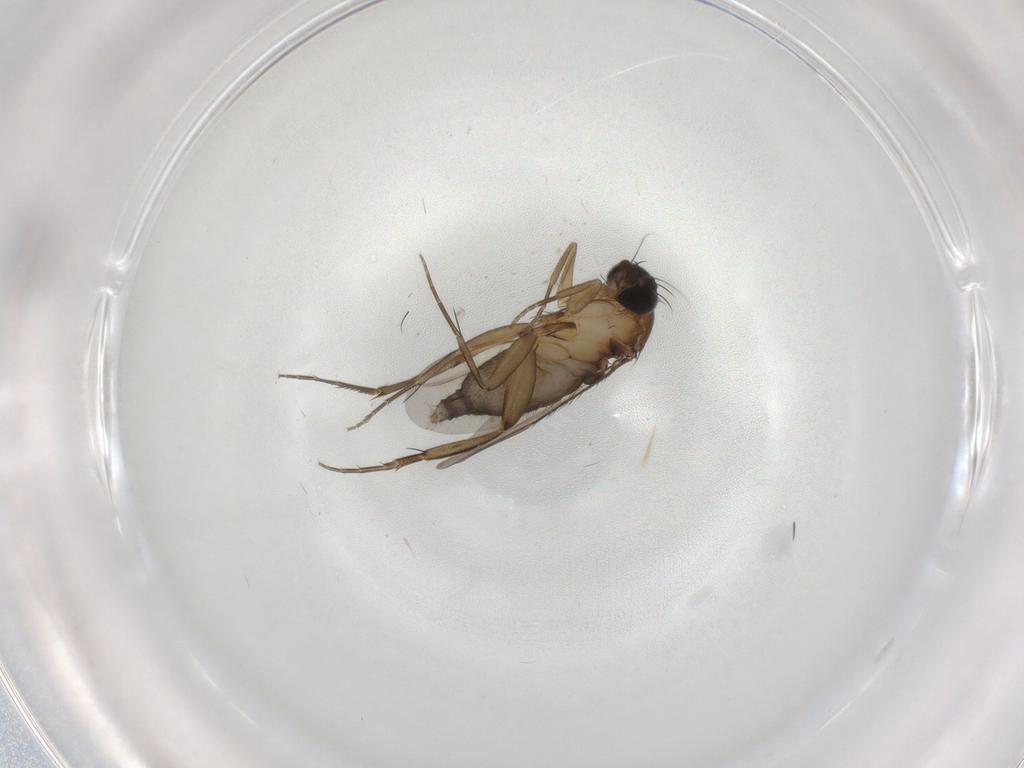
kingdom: Animalia
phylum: Arthropoda
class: Insecta
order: Diptera
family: Phoridae
